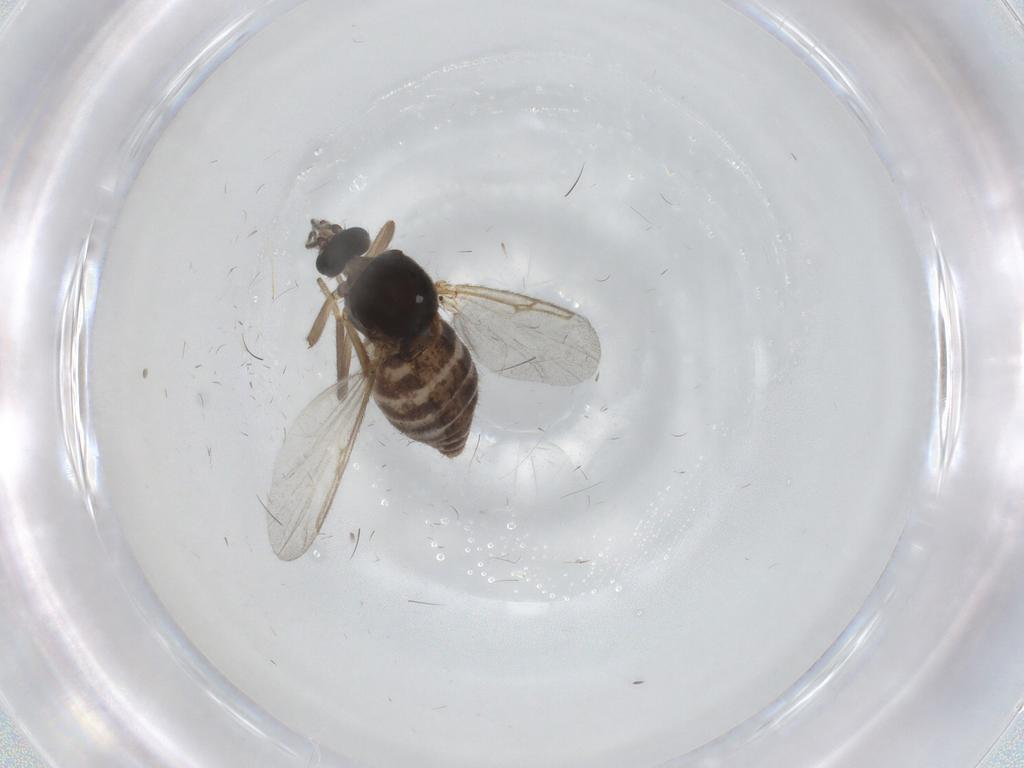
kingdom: Animalia
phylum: Arthropoda
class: Insecta
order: Diptera
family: Ceratopogonidae
